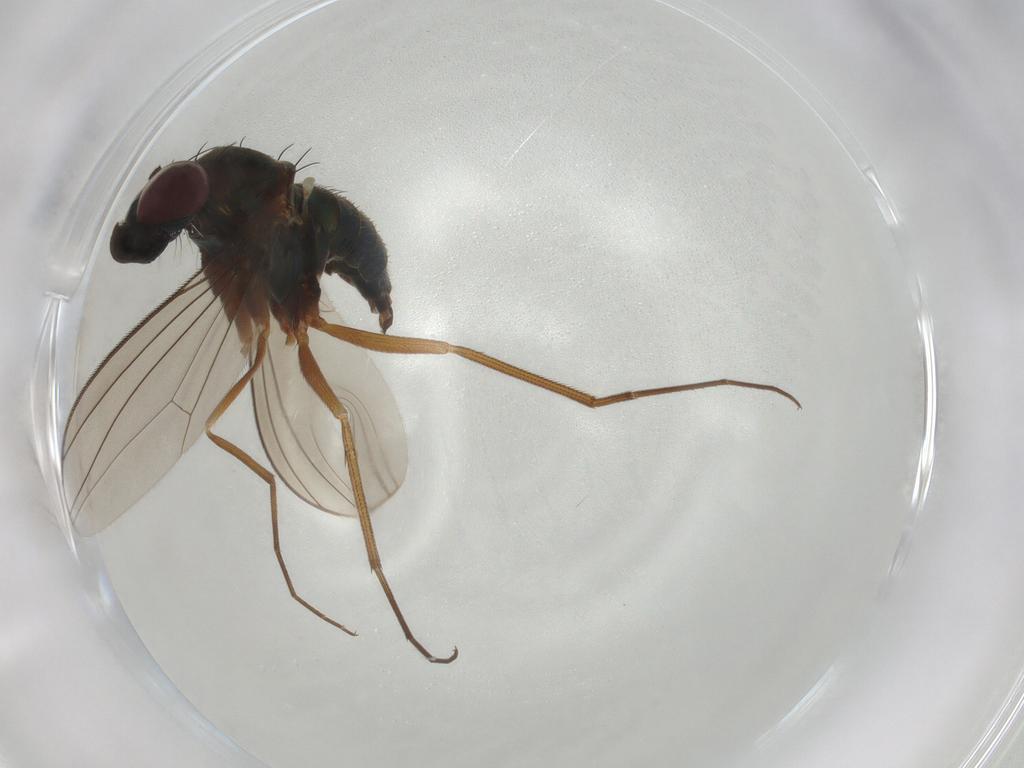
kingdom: Animalia
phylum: Arthropoda
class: Insecta
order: Diptera
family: Dolichopodidae
